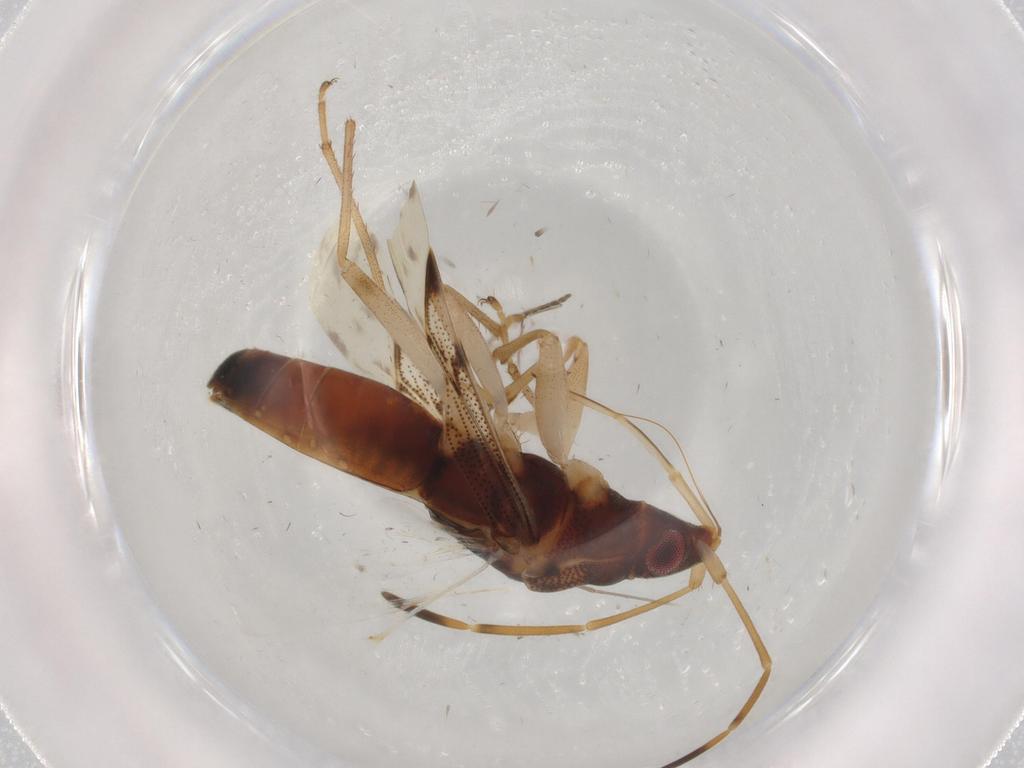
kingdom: Animalia
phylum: Arthropoda
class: Insecta
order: Hemiptera
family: Rhyparochromidae
